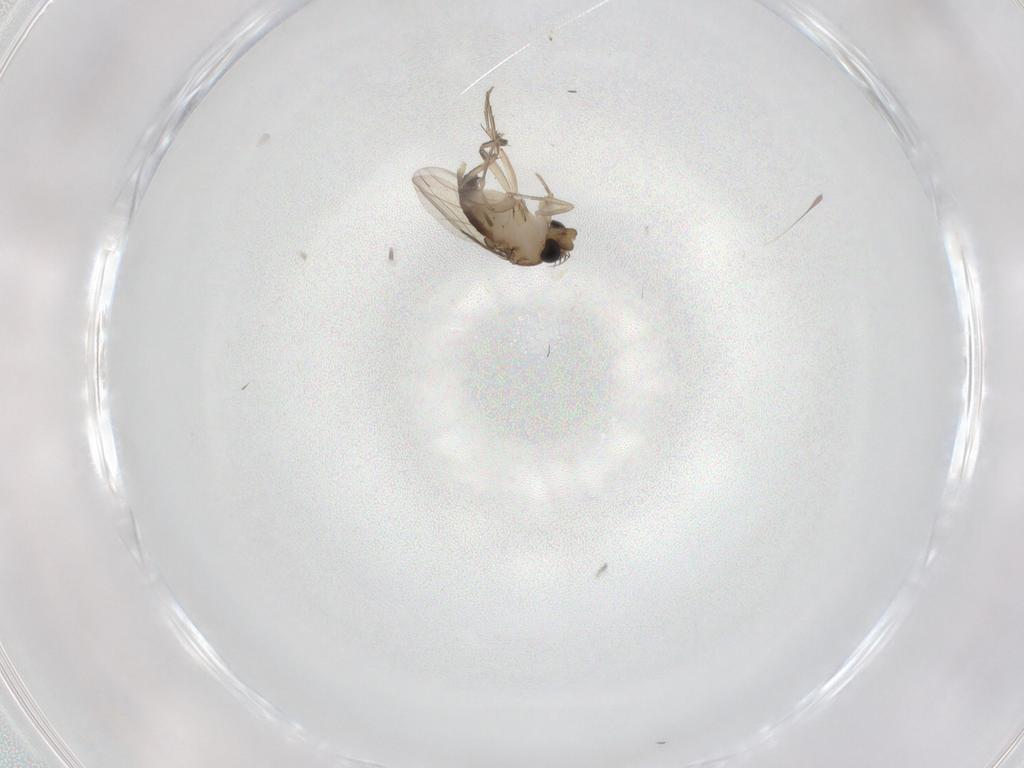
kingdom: Animalia
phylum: Arthropoda
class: Insecta
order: Diptera
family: Phoridae
